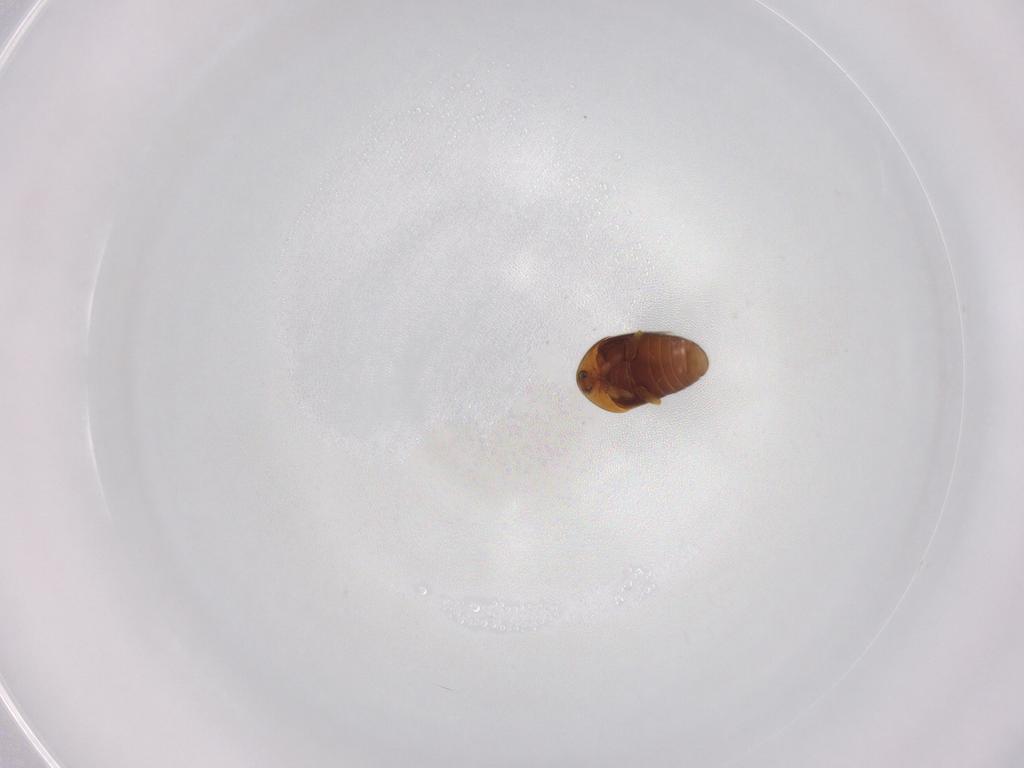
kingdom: Animalia
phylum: Arthropoda
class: Insecta
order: Coleoptera
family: Corylophidae
